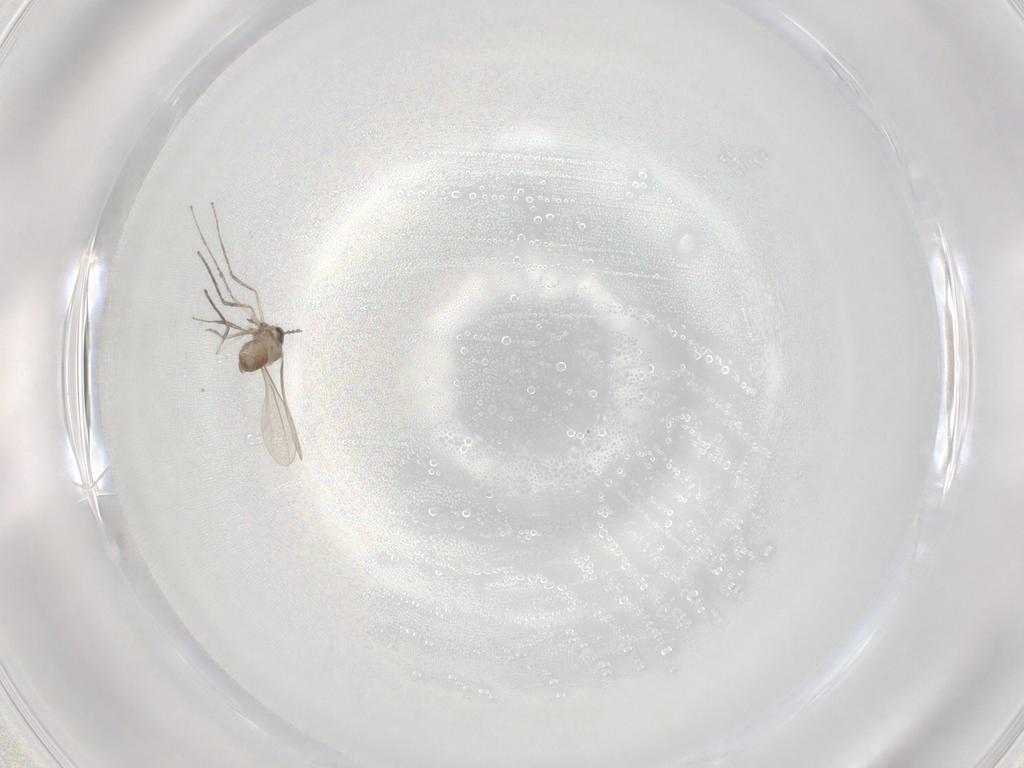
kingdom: Animalia
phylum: Arthropoda
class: Insecta
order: Diptera
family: Cecidomyiidae
